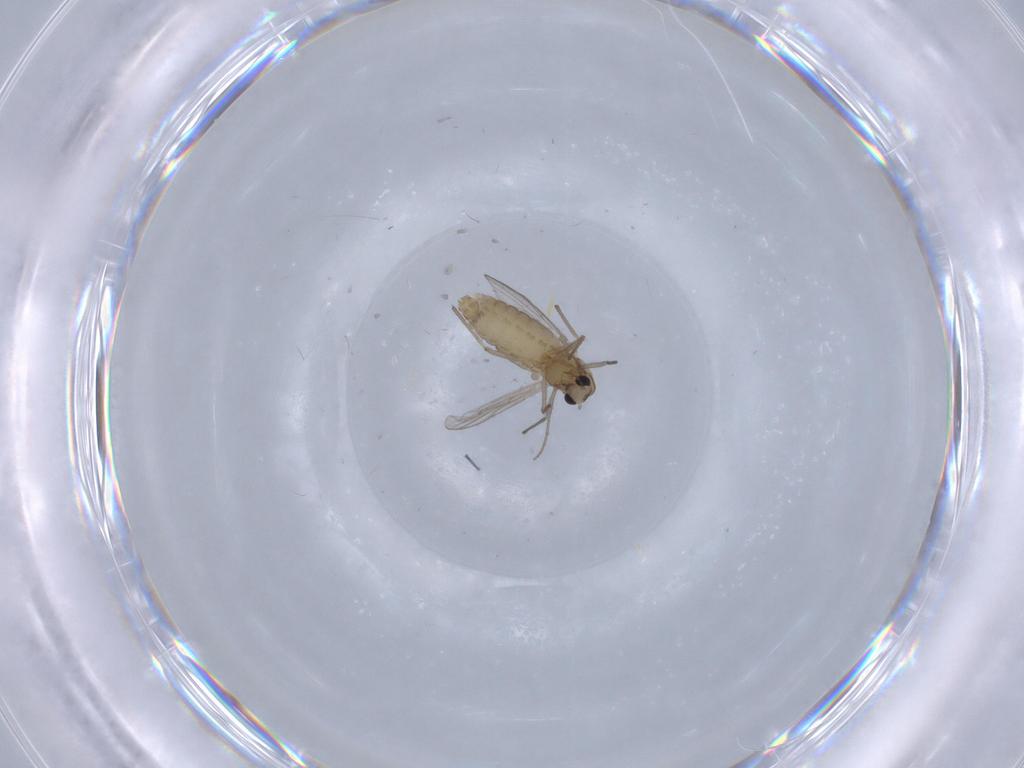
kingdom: Animalia
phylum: Arthropoda
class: Insecta
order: Diptera
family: Chironomidae
